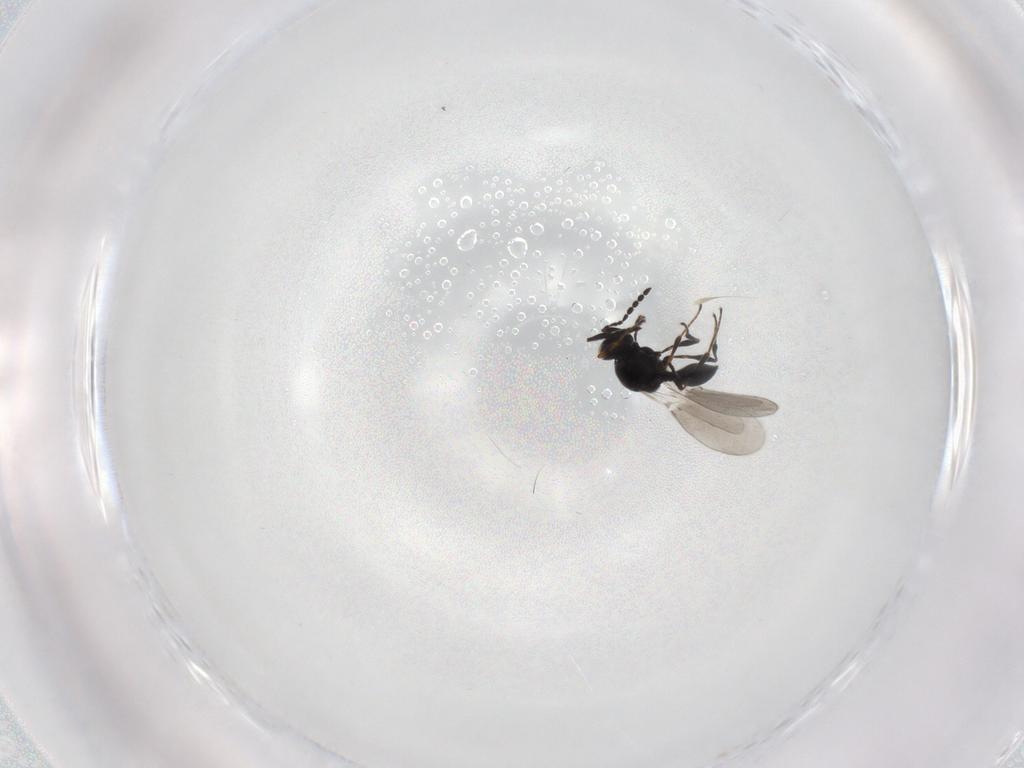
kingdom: Animalia
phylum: Arthropoda
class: Insecta
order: Hymenoptera
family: Platygastridae
